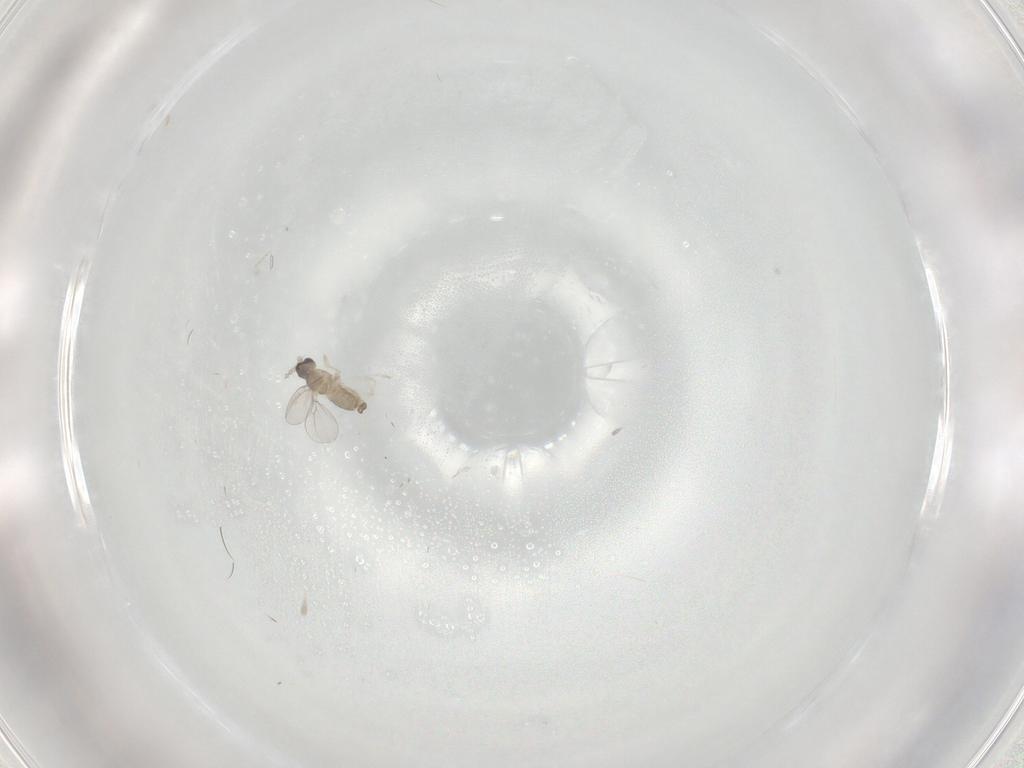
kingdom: Animalia
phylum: Arthropoda
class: Insecta
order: Diptera
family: Cecidomyiidae
